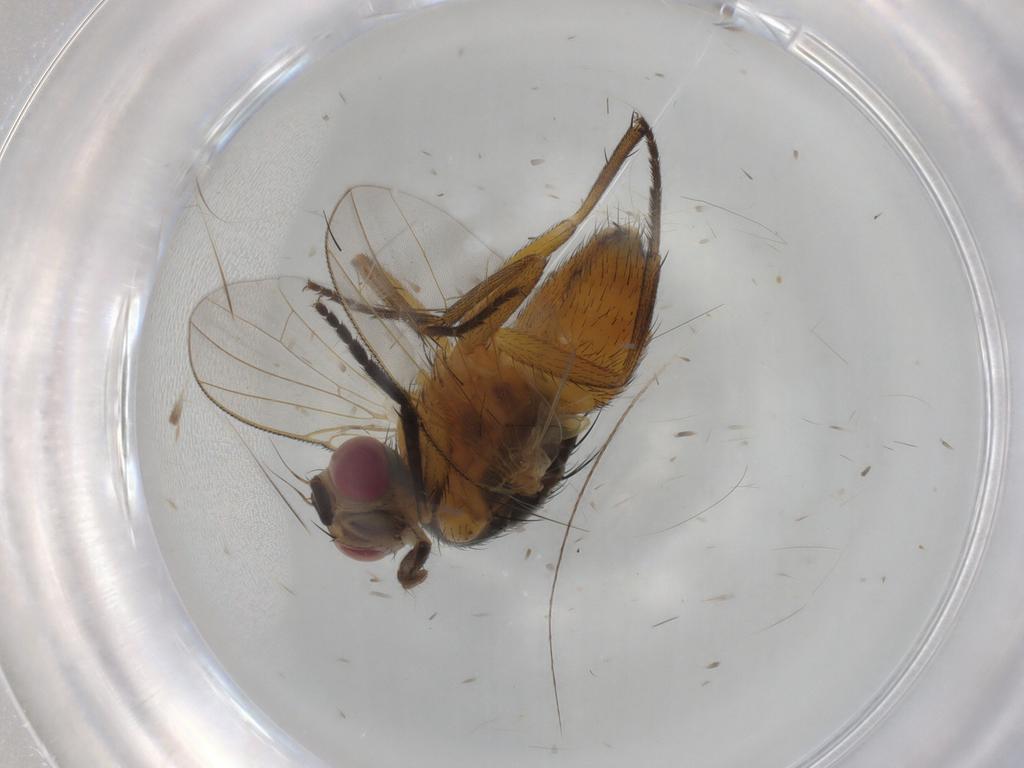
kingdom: Animalia
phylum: Arthropoda
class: Insecta
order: Diptera
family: Muscidae
